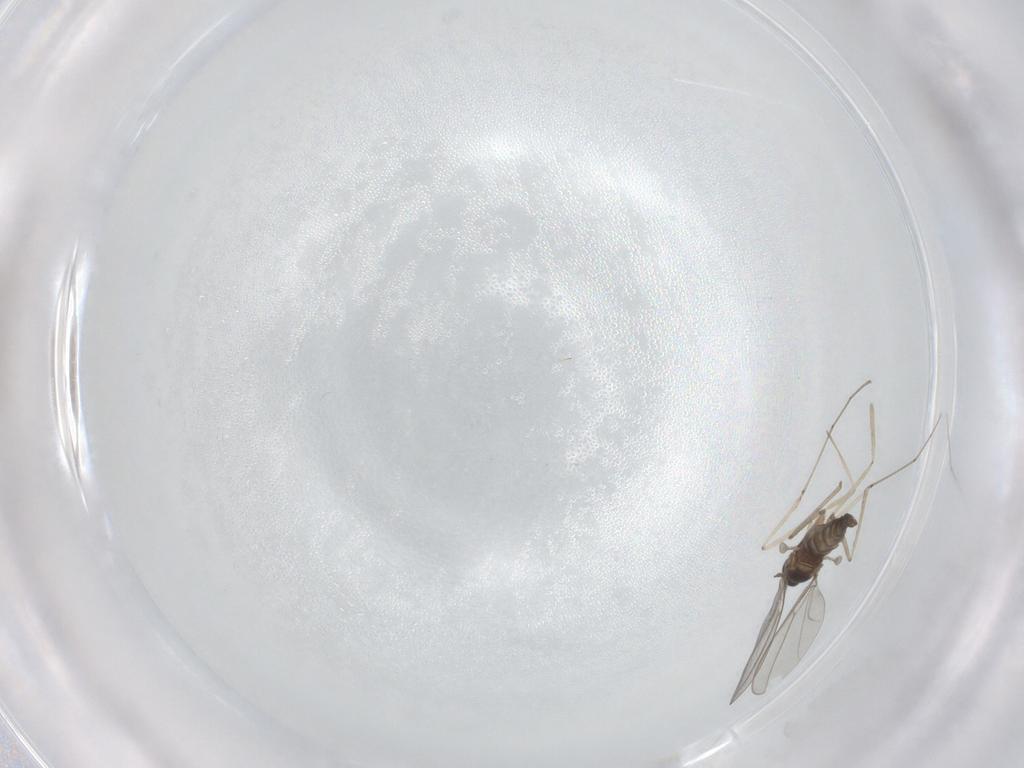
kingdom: Animalia
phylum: Arthropoda
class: Insecta
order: Diptera
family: Cecidomyiidae
